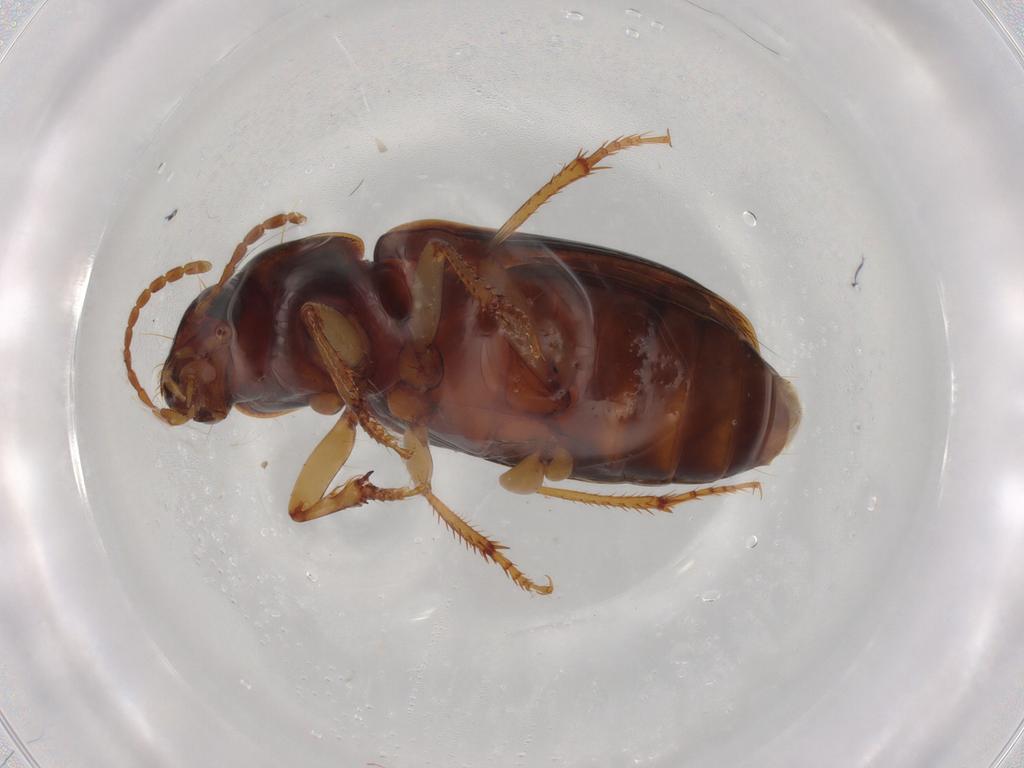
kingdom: Animalia
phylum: Arthropoda
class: Insecta
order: Coleoptera
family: Carabidae
